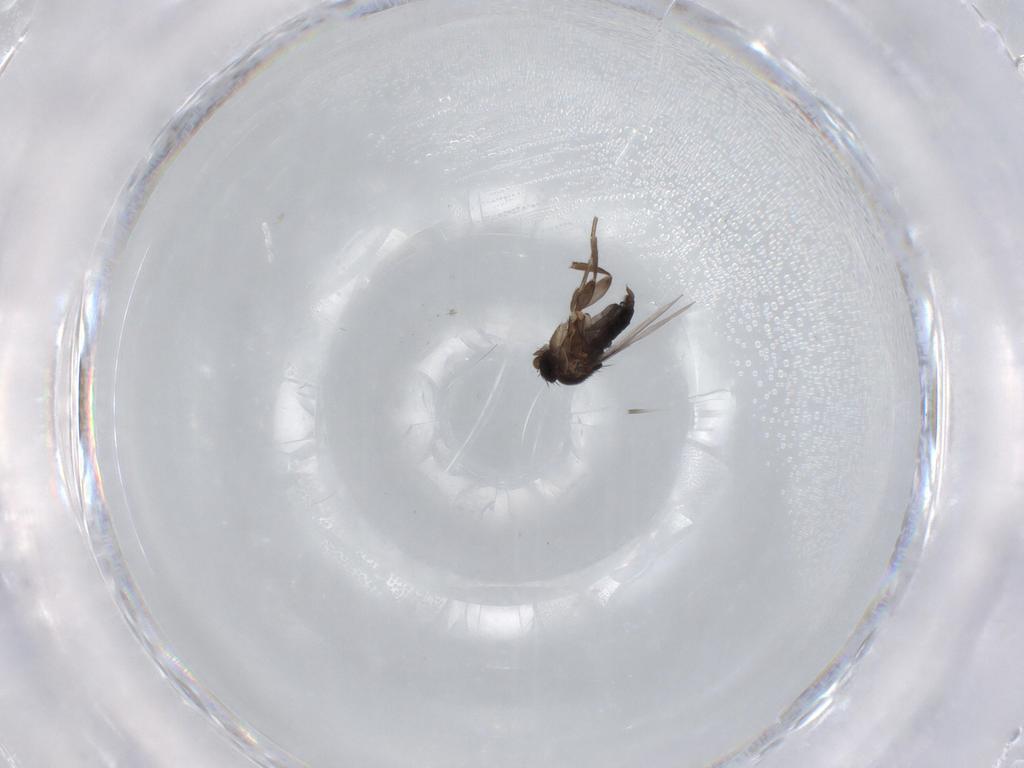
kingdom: Animalia
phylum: Arthropoda
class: Insecta
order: Diptera
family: Phoridae
